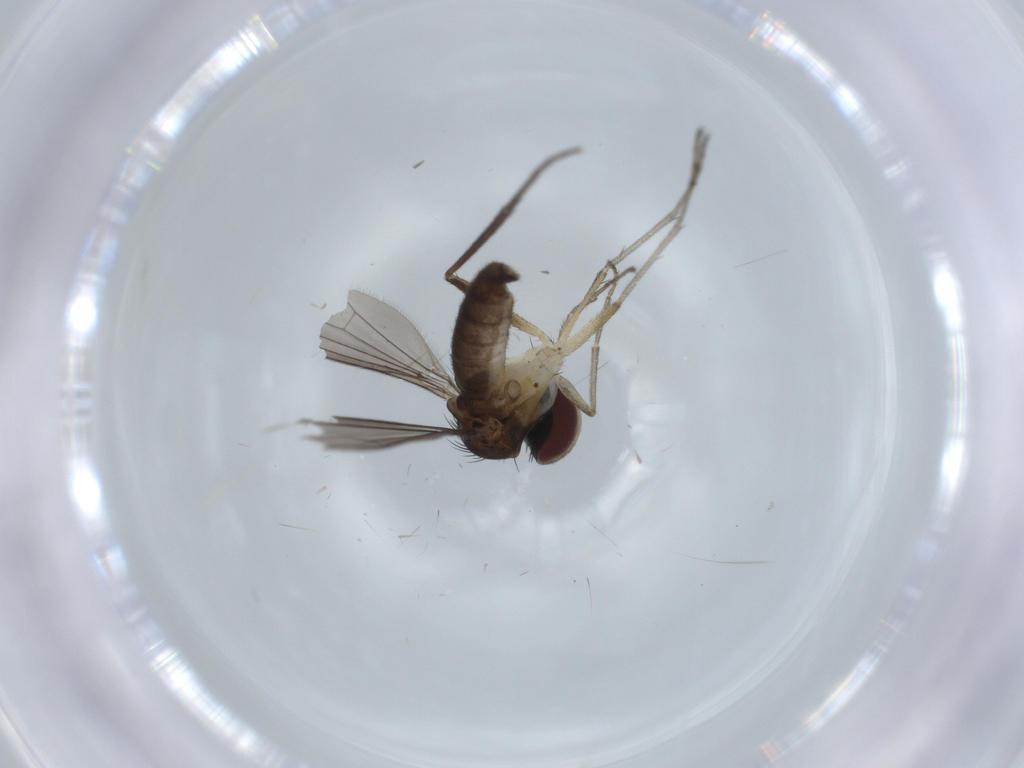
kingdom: Animalia
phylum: Arthropoda
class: Insecta
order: Diptera
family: Dolichopodidae
